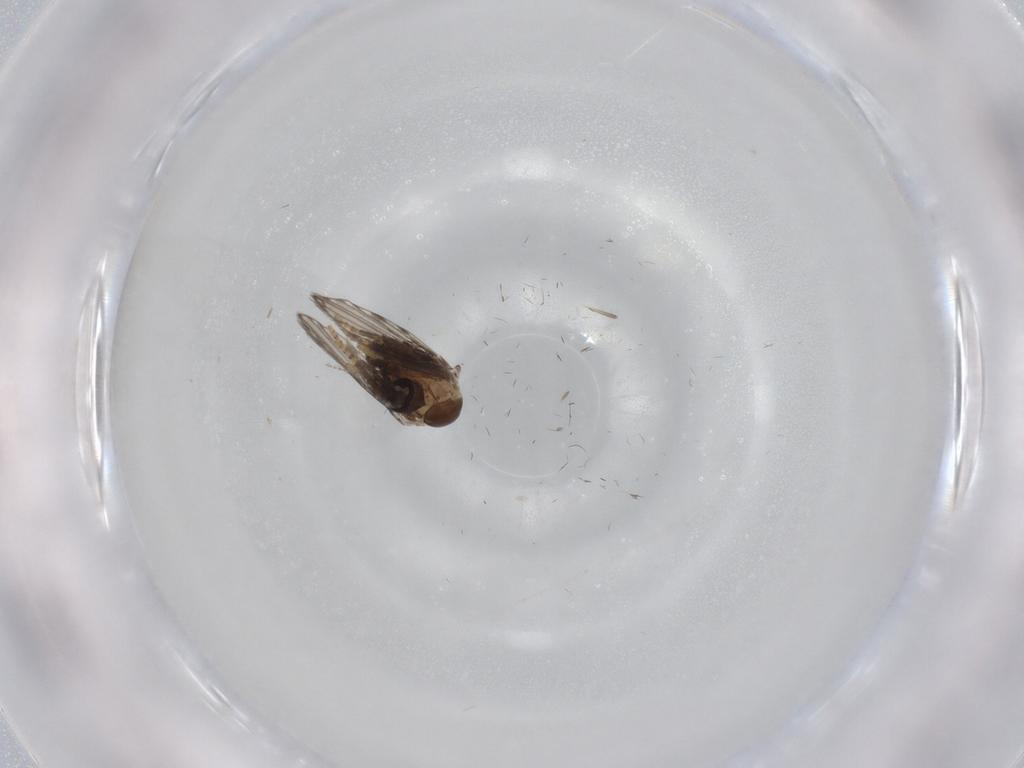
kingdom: Animalia
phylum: Arthropoda
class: Insecta
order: Diptera
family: Psychodidae
